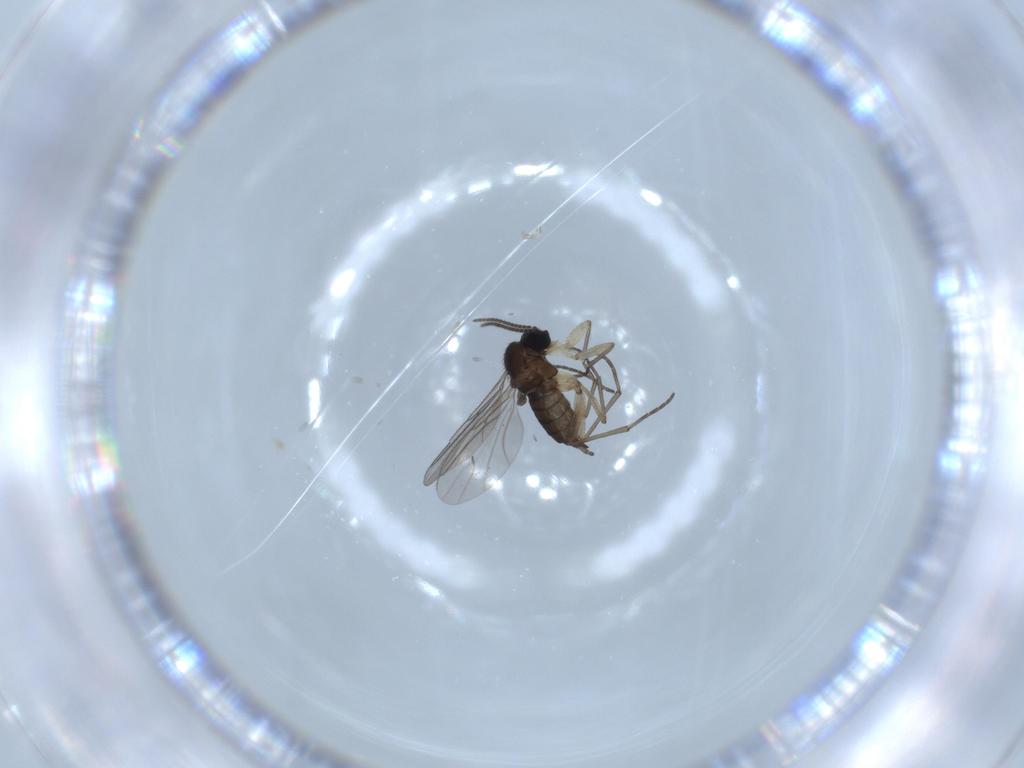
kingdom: Animalia
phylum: Arthropoda
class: Insecta
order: Diptera
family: Sciaridae
